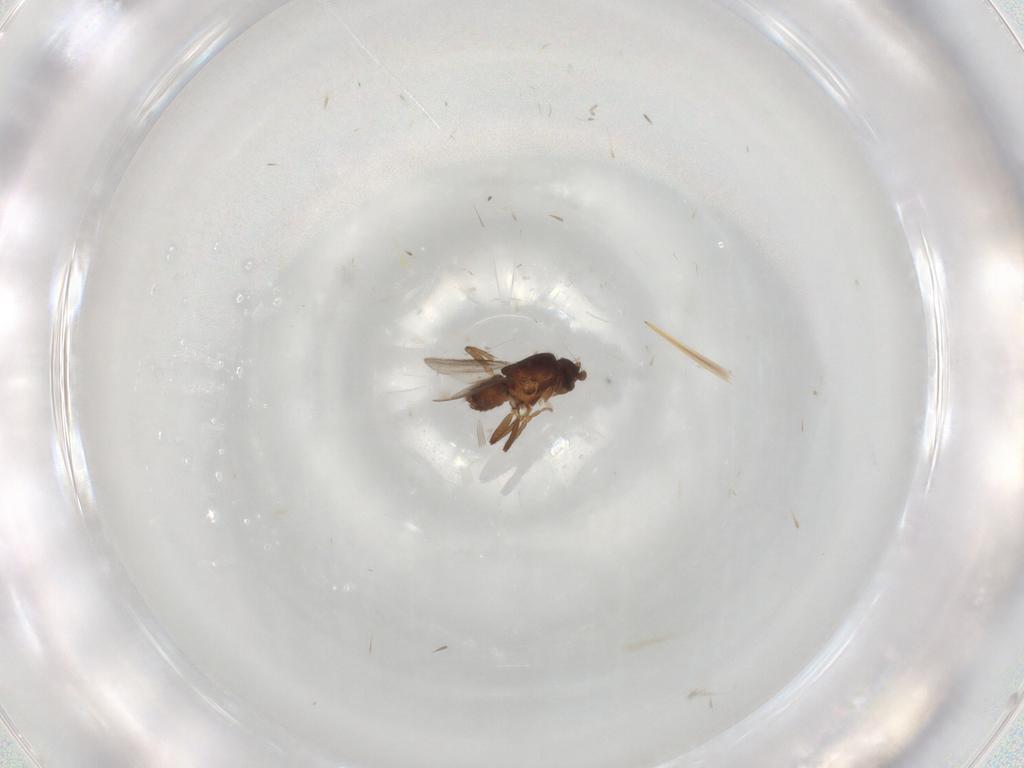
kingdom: Animalia
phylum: Arthropoda
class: Insecta
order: Diptera
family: Sphaeroceridae
